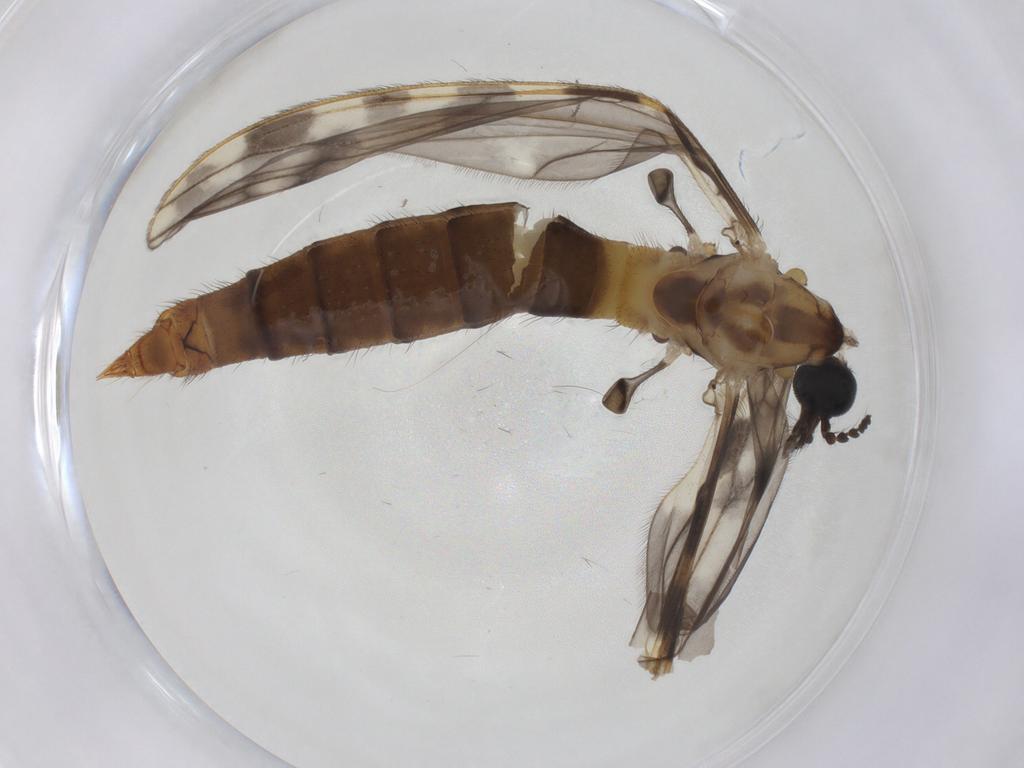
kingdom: Animalia
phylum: Arthropoda
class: Insecta
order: Diptera
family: Limoniidae
